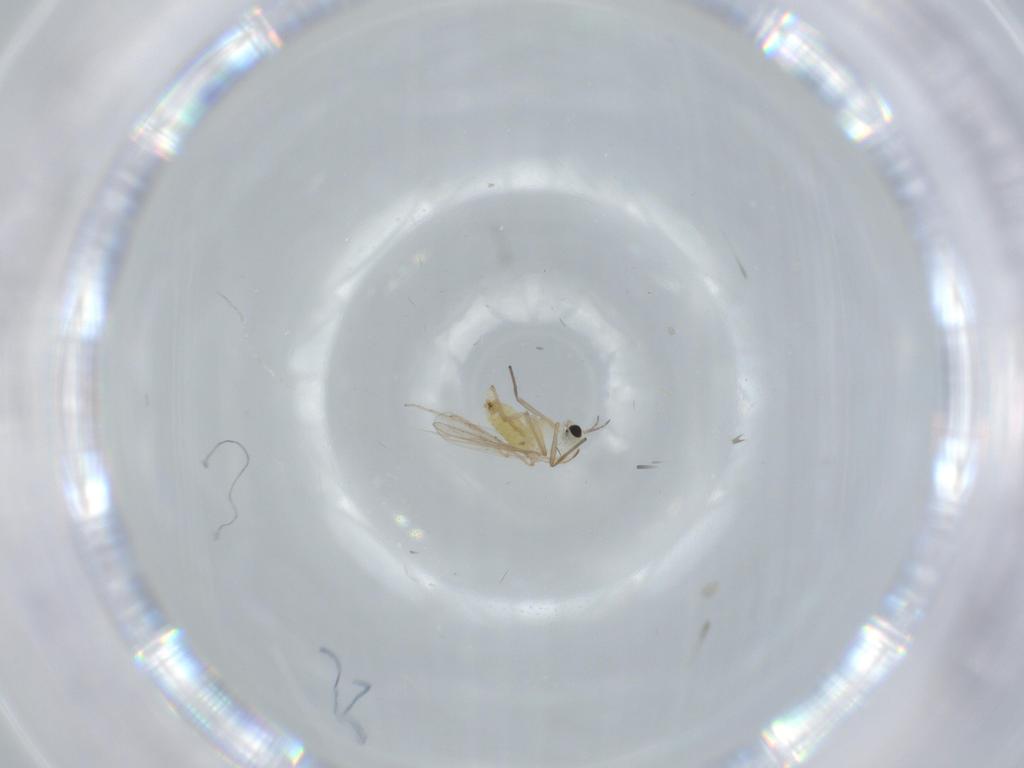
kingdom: Animalia
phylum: Arthropoda
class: Insecta
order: Diptera
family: Chironomidae
